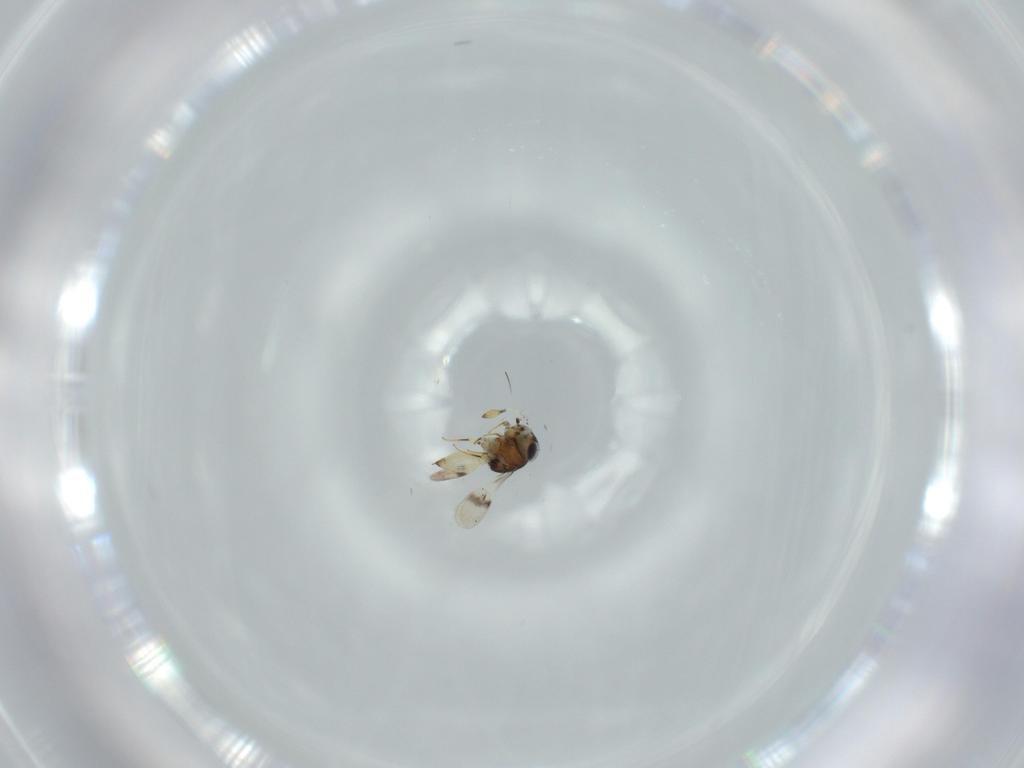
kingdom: Animalia
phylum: Arthropoda
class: Insecta
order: Hymenoptera
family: Scelionidae
